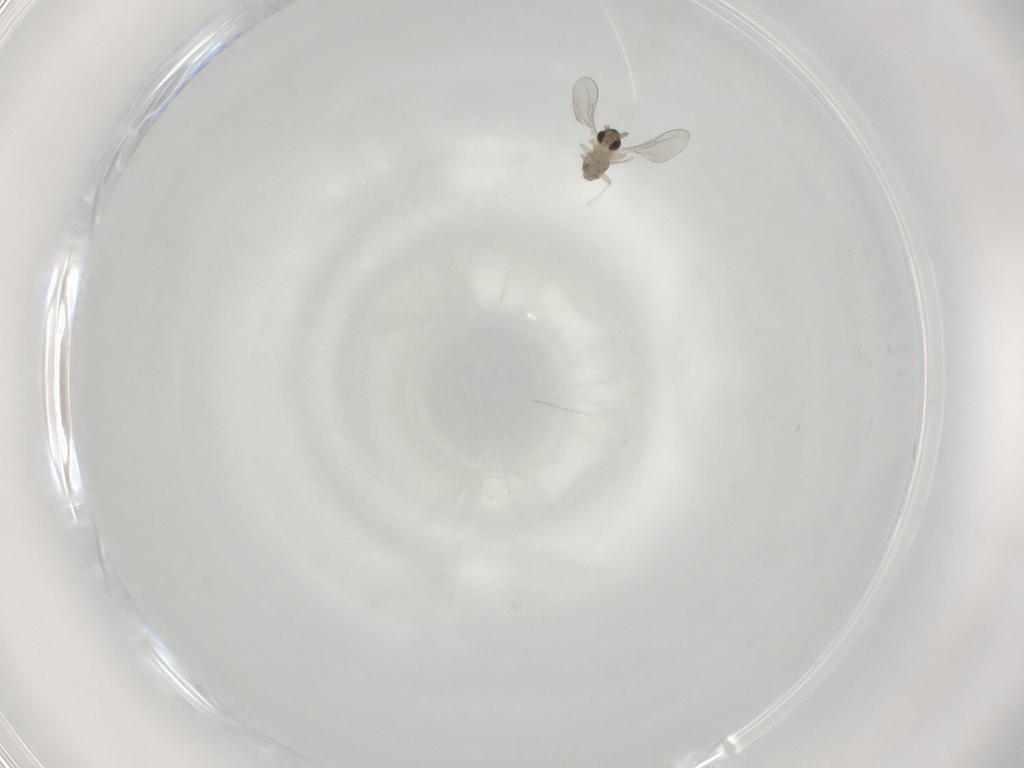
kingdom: Animalia
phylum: Arthropoda
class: Insecta
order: Diptera
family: Cecidomyiidae
